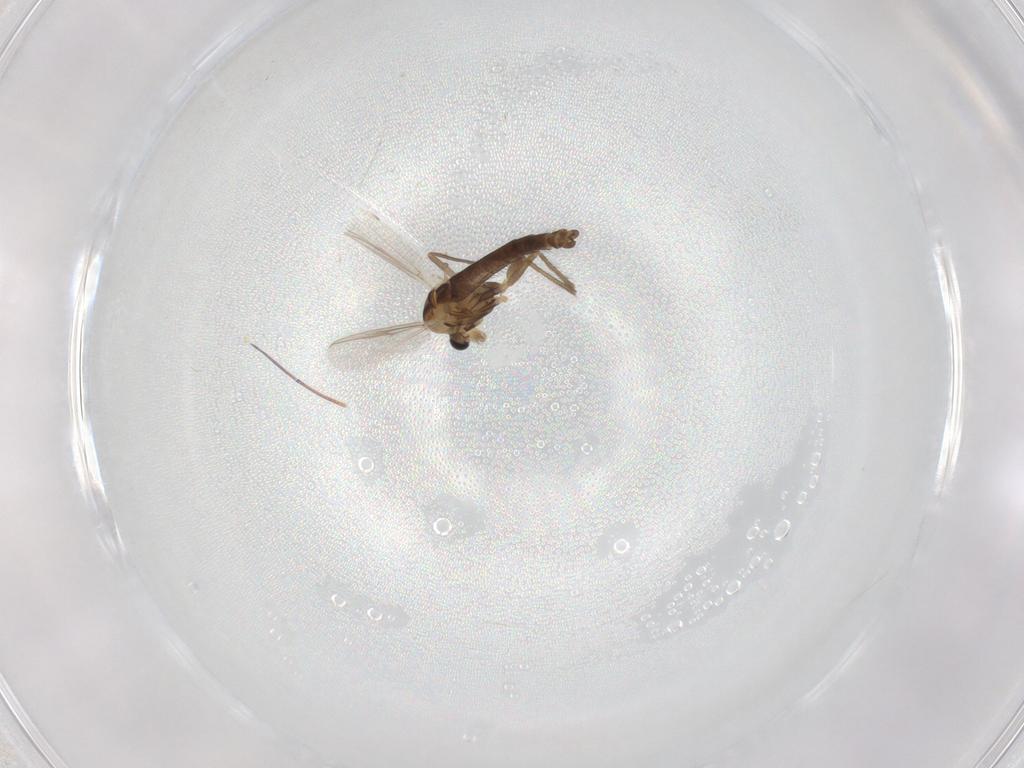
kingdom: Animalia
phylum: Arthropoda
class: Insecta
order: Diptera
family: Chironomidae
